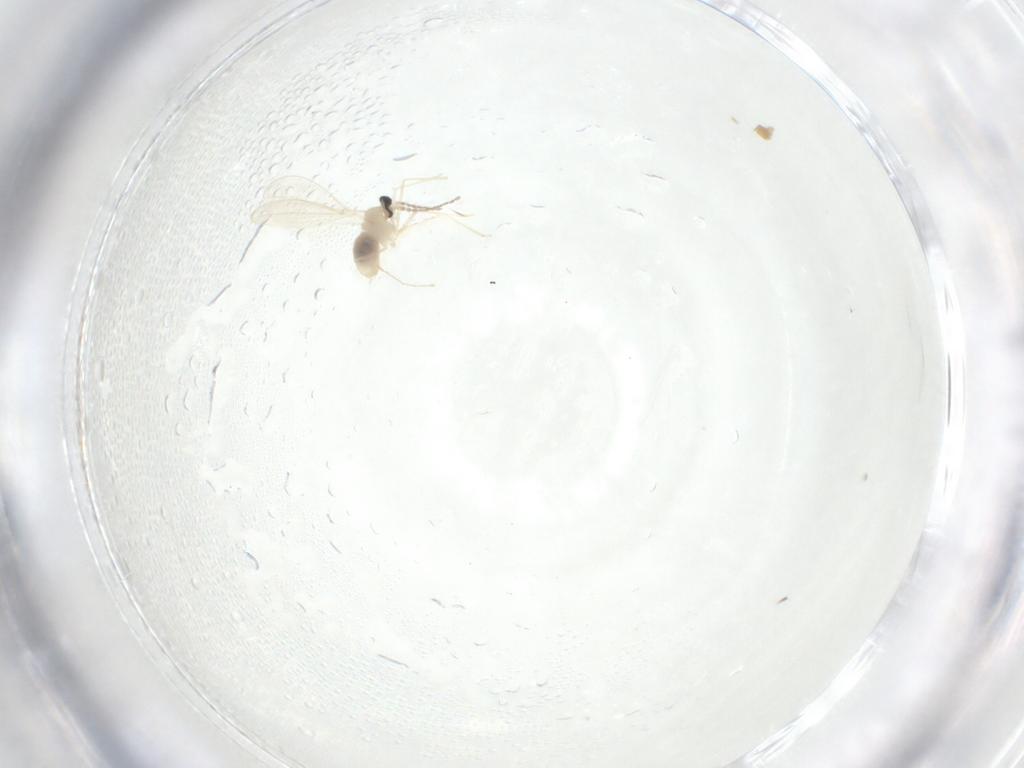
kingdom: Animalia
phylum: Arthropoda
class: Insecta
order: Diptera
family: Cecidomyiidae
